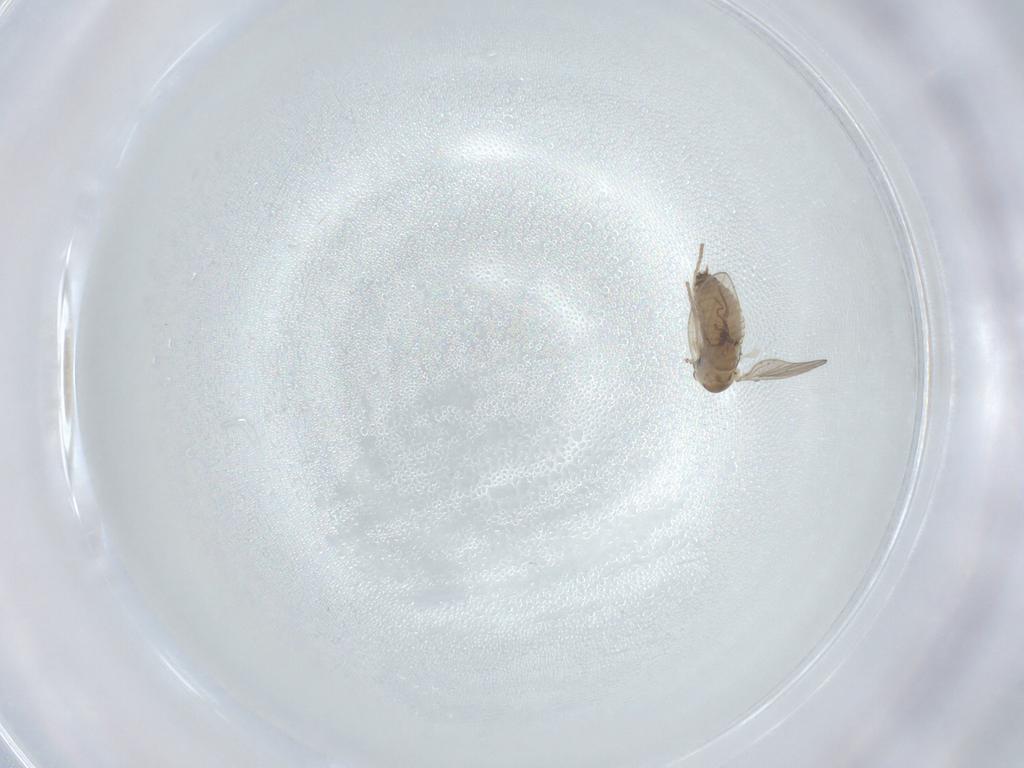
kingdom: Animalia
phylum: Arthropoda
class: Insecta
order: Diptera
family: Psychodidae
